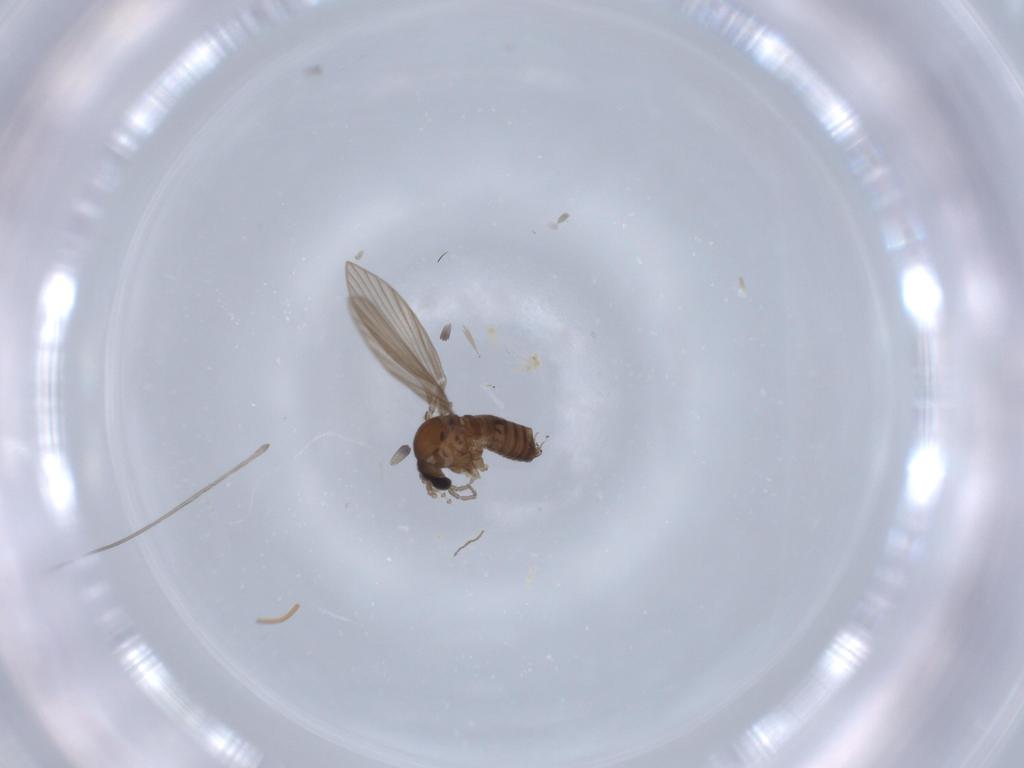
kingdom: Animalia
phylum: Arthropoda
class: Insecta
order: Diptera
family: Psychodidae
